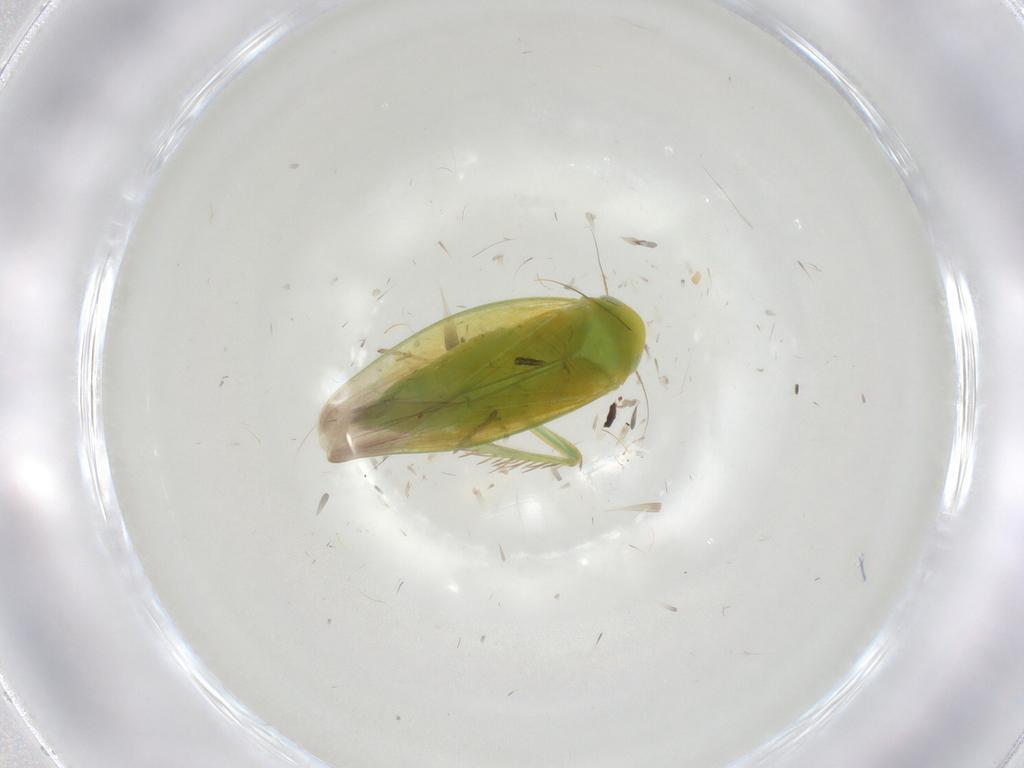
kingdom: Animalia
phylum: Arthropoda
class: Insecta
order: Hemiptera
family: Cicadellidae
